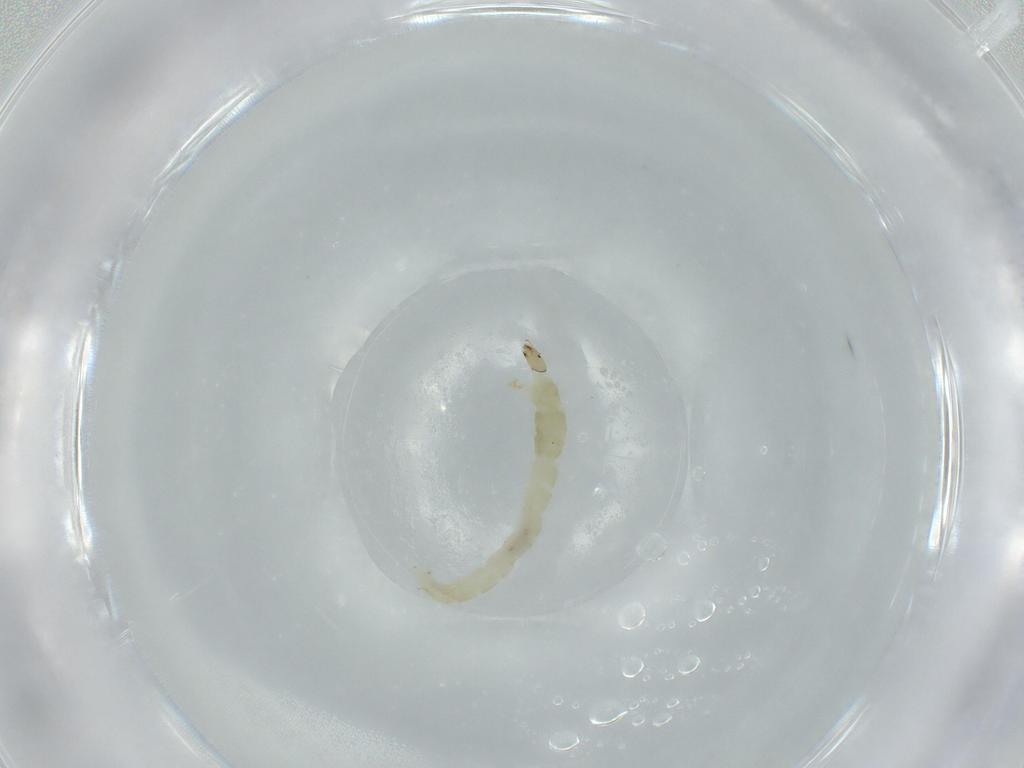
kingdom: Animalia
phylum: Arthropoda
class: Insecta
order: Diptera
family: Chironomidae
